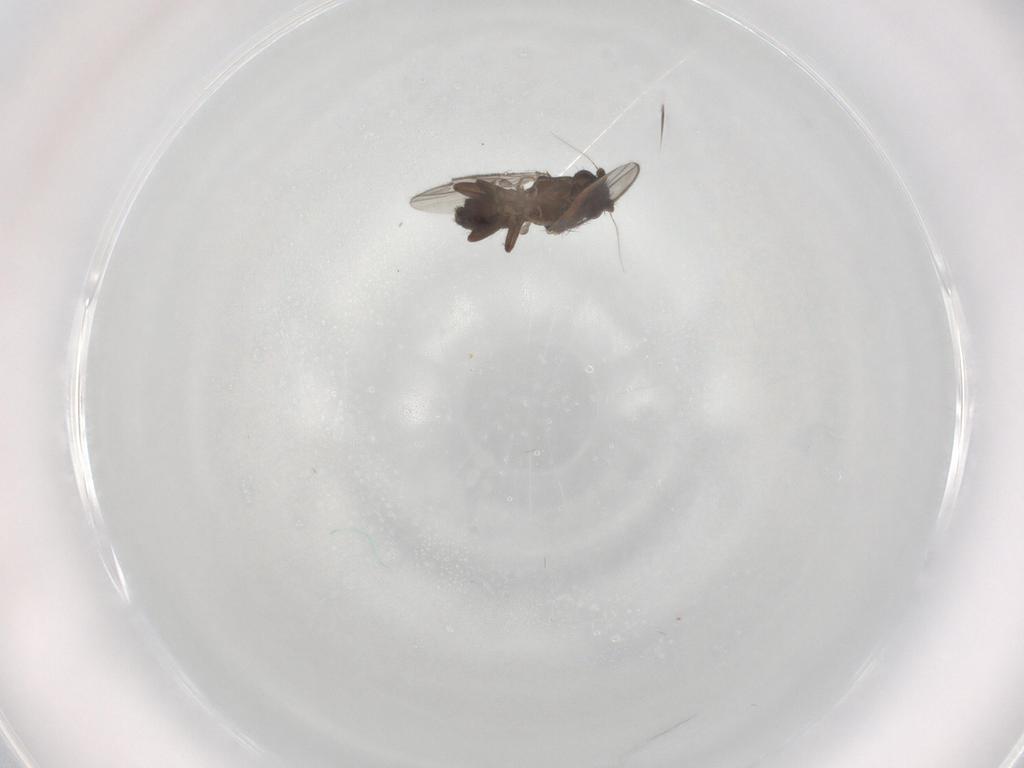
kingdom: Animalia
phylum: Arthropoda
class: Insecta
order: Diptera
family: Sphaeroceridae
